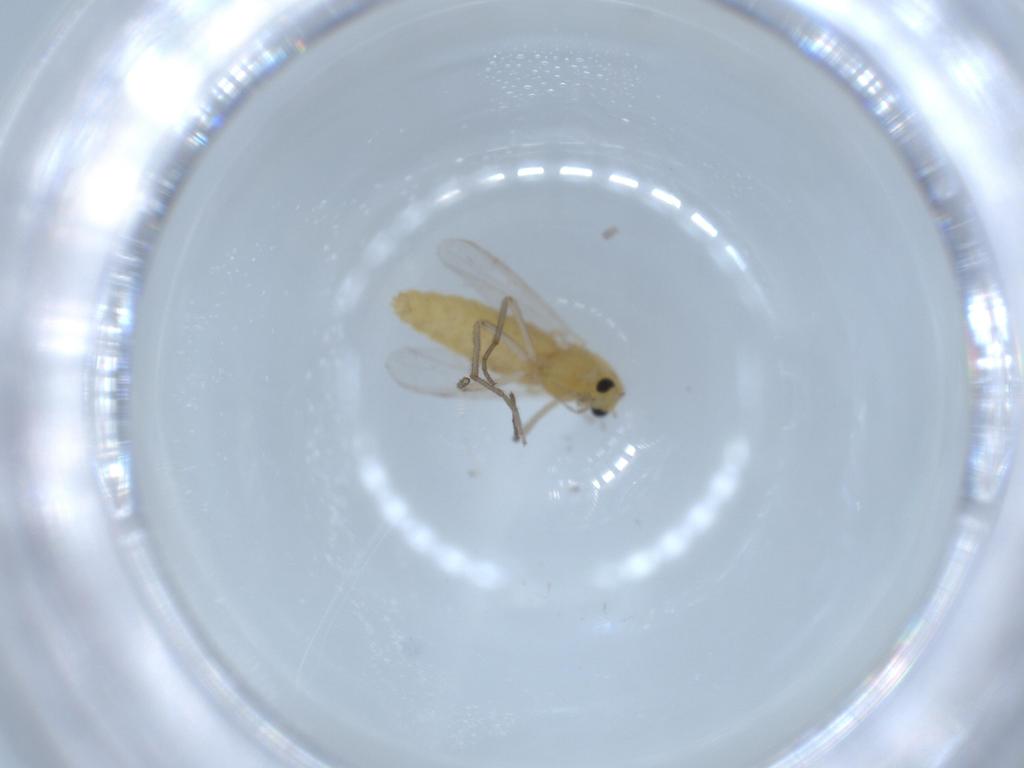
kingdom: Animalia
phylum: Arthropoda
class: Insecta
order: Diptera
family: Chironomidae
